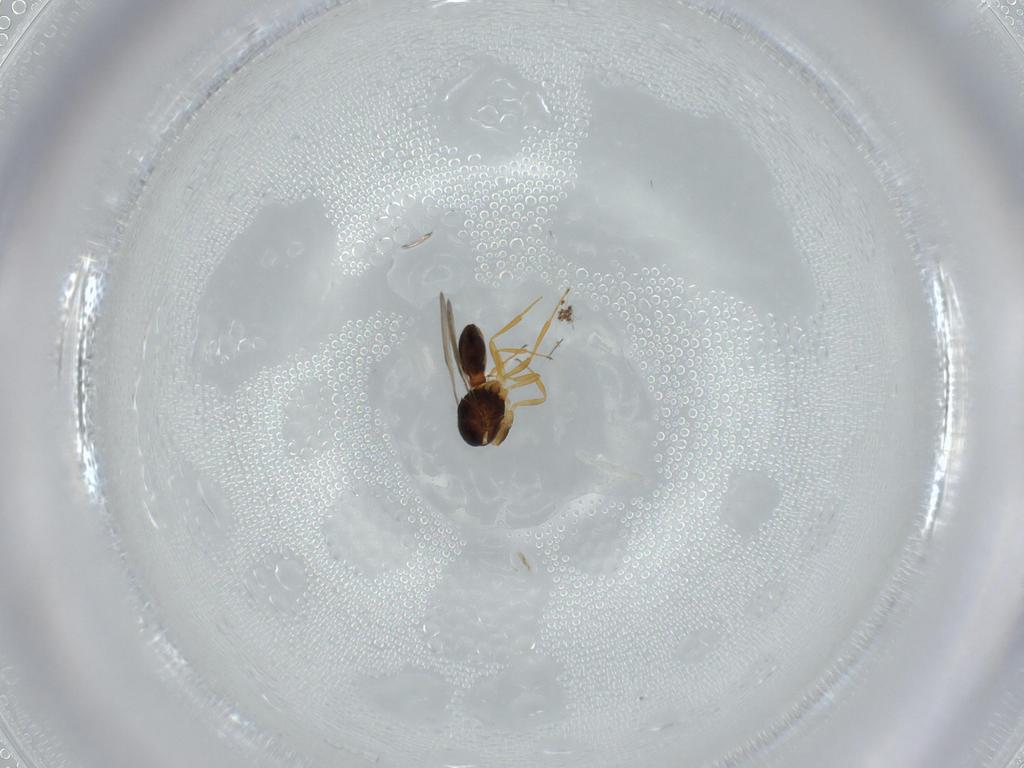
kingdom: Animalia
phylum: Arthropoda
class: Insecta
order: Hymenoptera
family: Scelionidae
